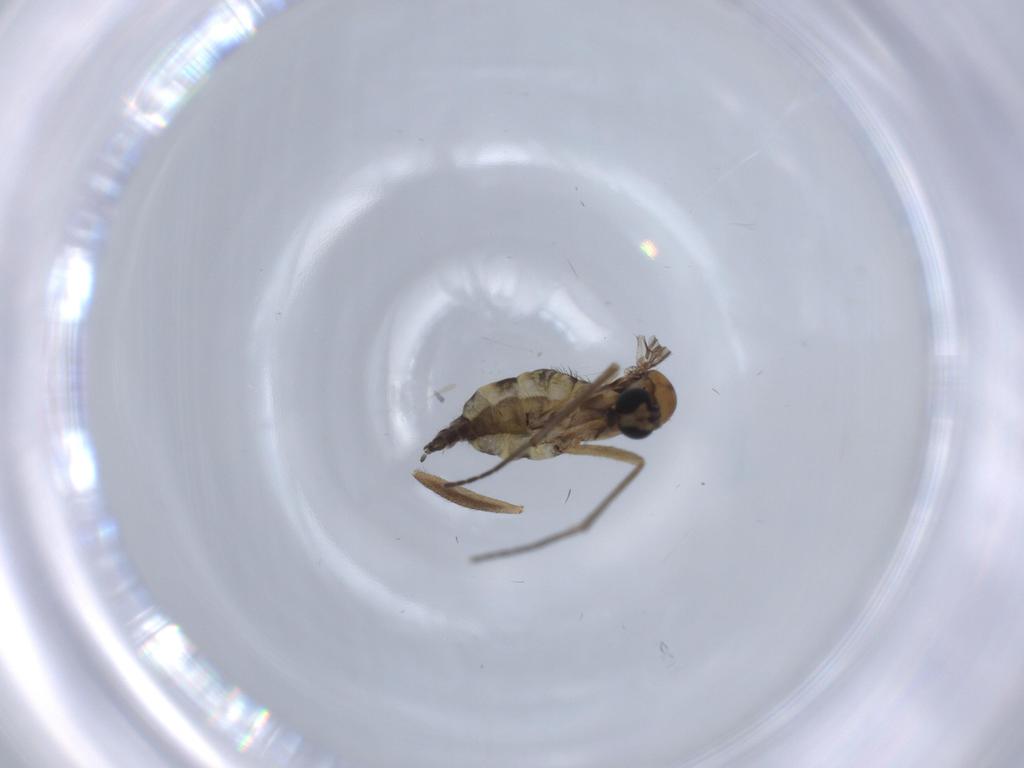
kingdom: Animalia
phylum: Arthropoda
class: Insecta
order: Diptera
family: Sciaridae
